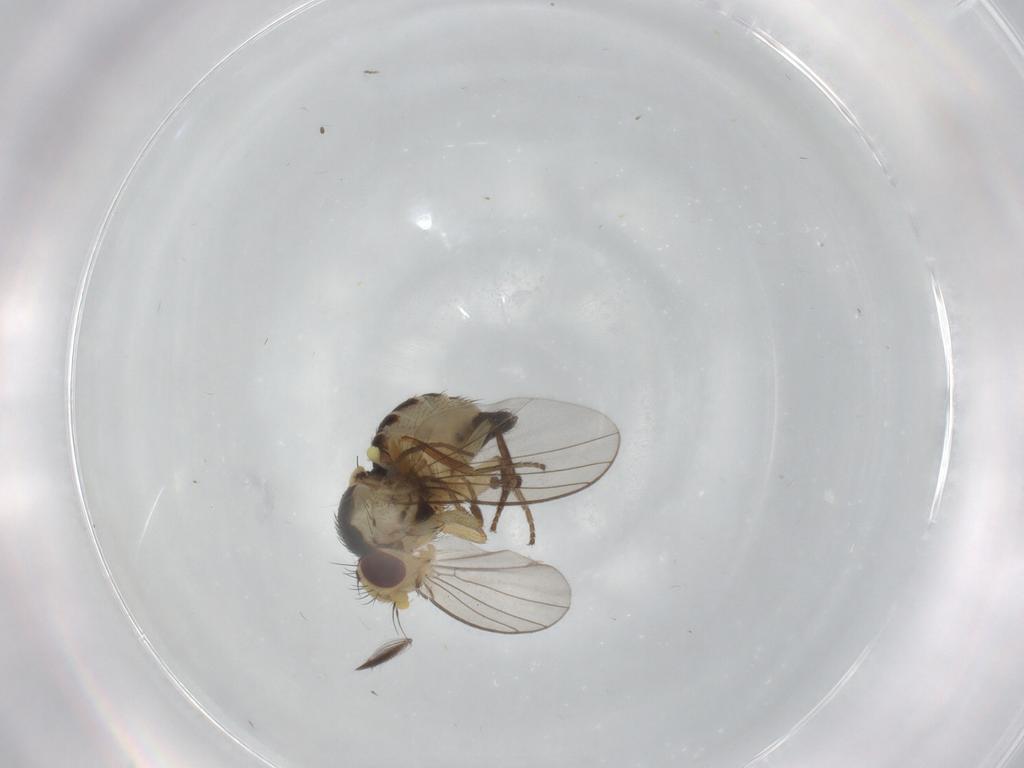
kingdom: Animalia
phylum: Arthropoda
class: Insecta
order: Diptera
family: Agromyzidae
